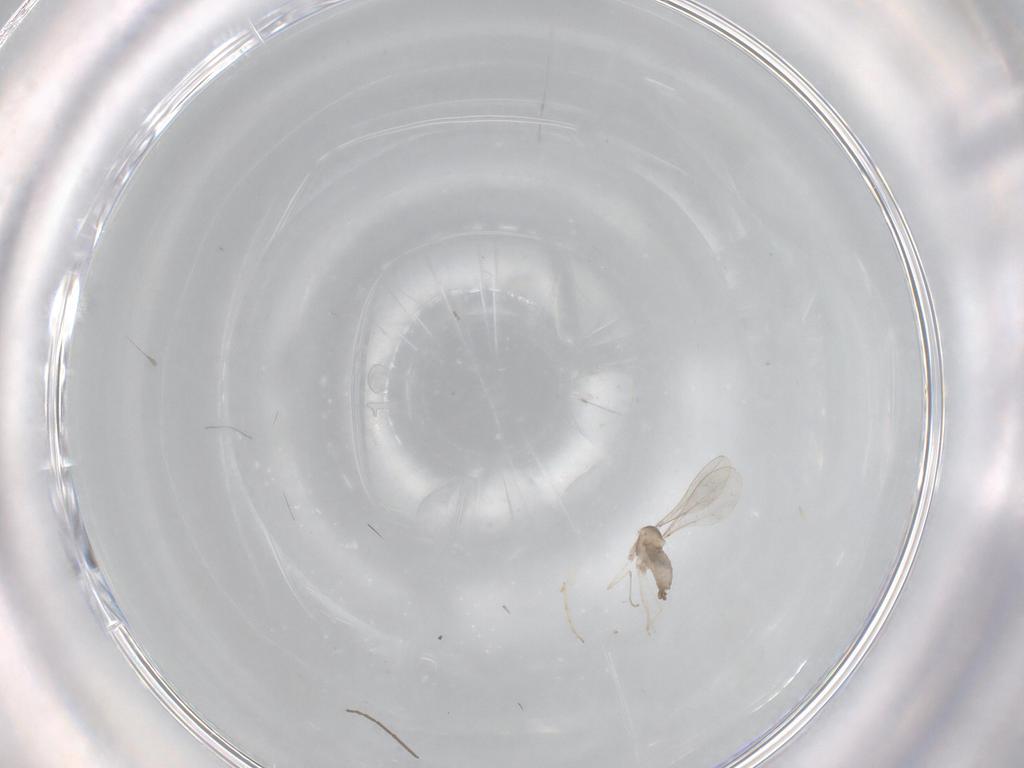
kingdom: Animalia
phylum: Arthropoda
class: Insecta
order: Diptera
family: Cecidomyiidae
